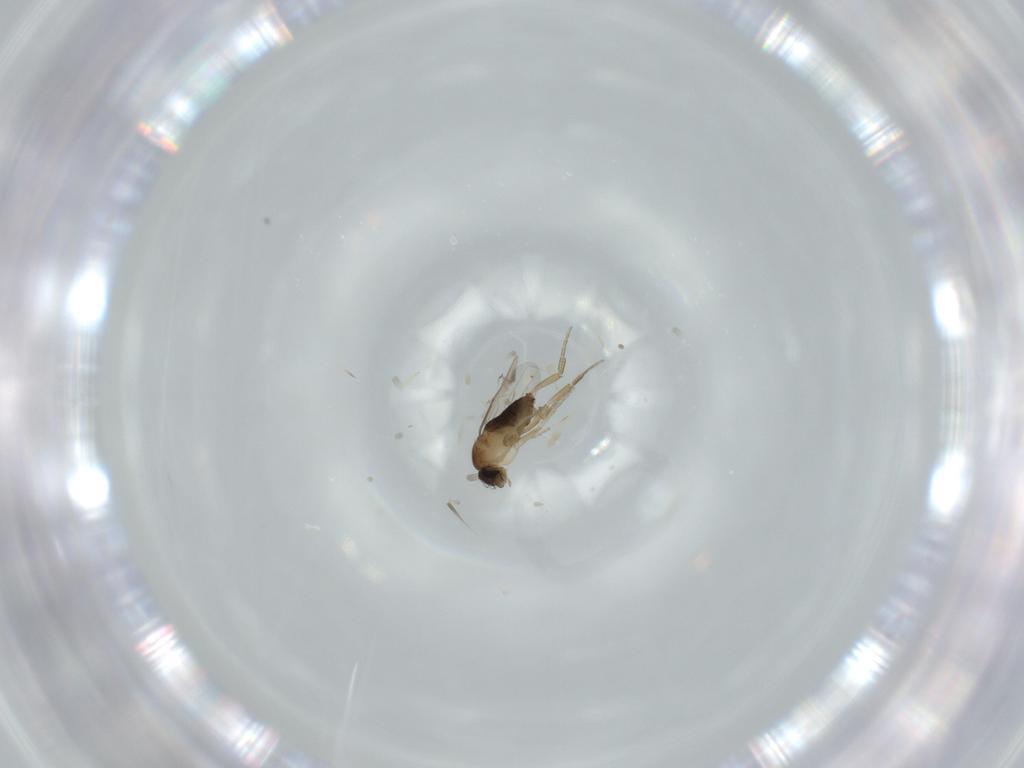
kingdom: Animalia
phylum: Arthropoda
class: Insecta
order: Diptera
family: Phoridae
